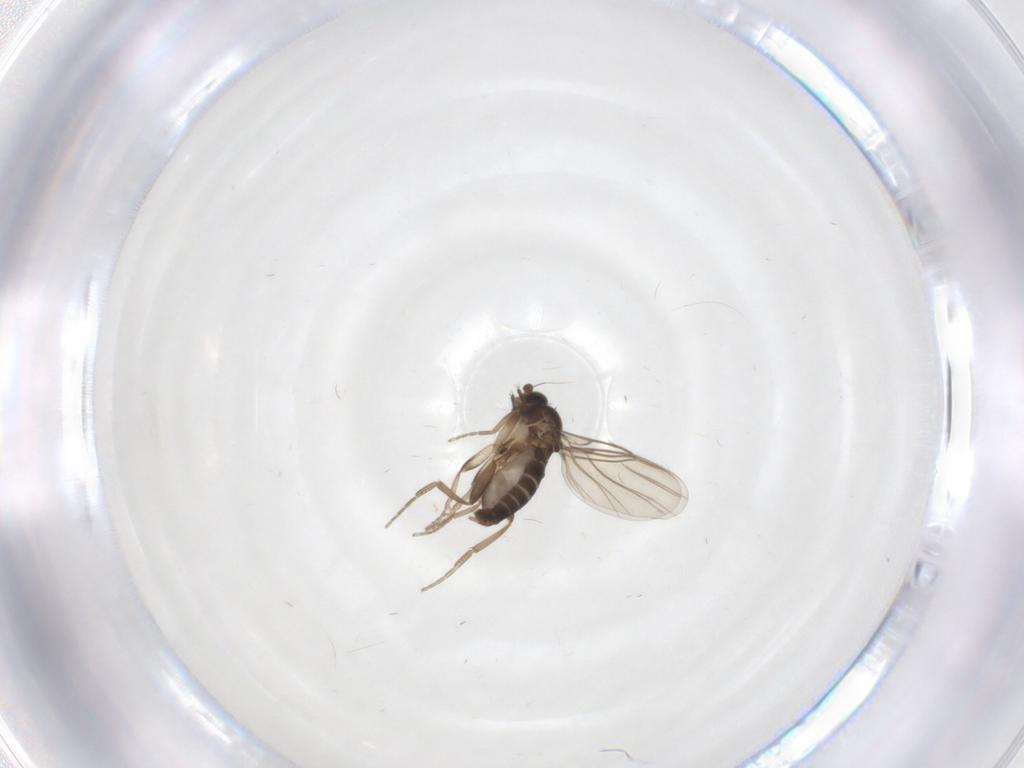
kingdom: Animalia
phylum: Arthropoda
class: Insecta
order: Diptera
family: Phoridae
